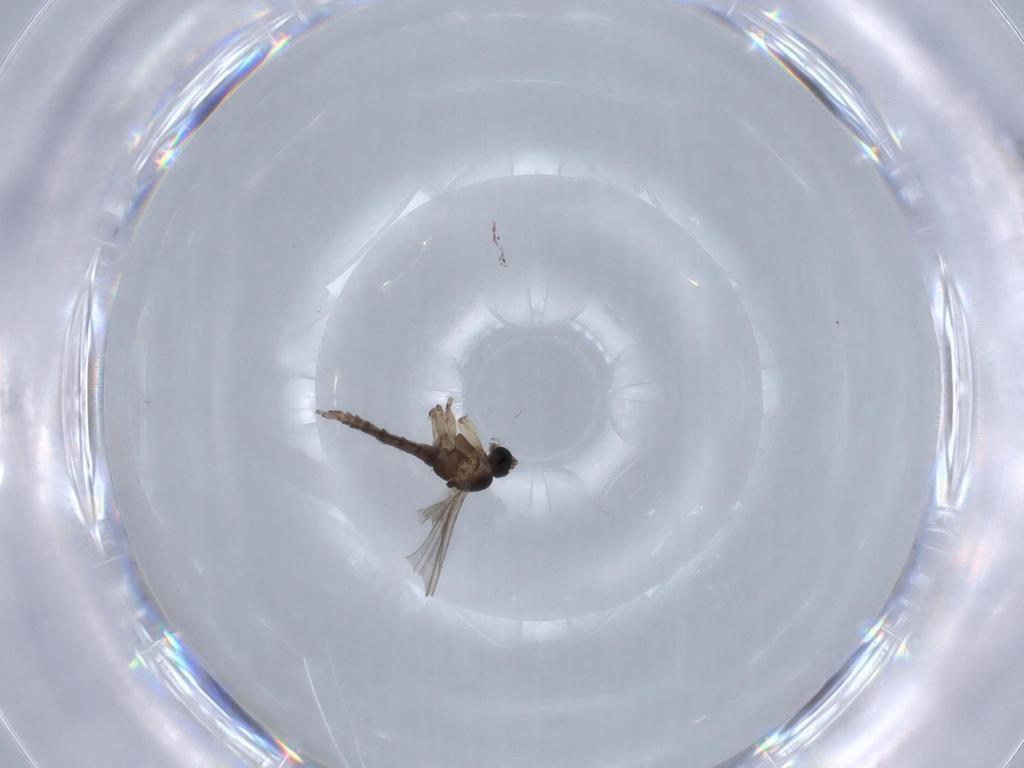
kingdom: Animalia
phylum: Arthropoda
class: Insecta
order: Diptera
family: Sciaridae
